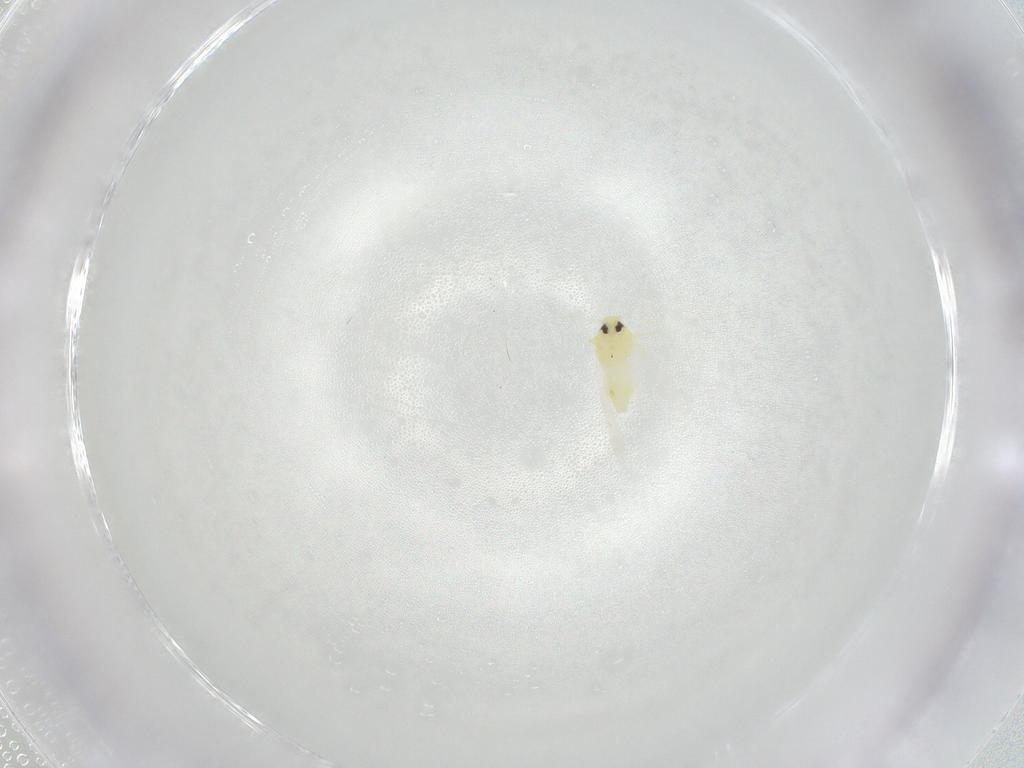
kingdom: Animalia
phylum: Arthropoda
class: Insecta
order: Hemiptera
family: Aleyrodidae
